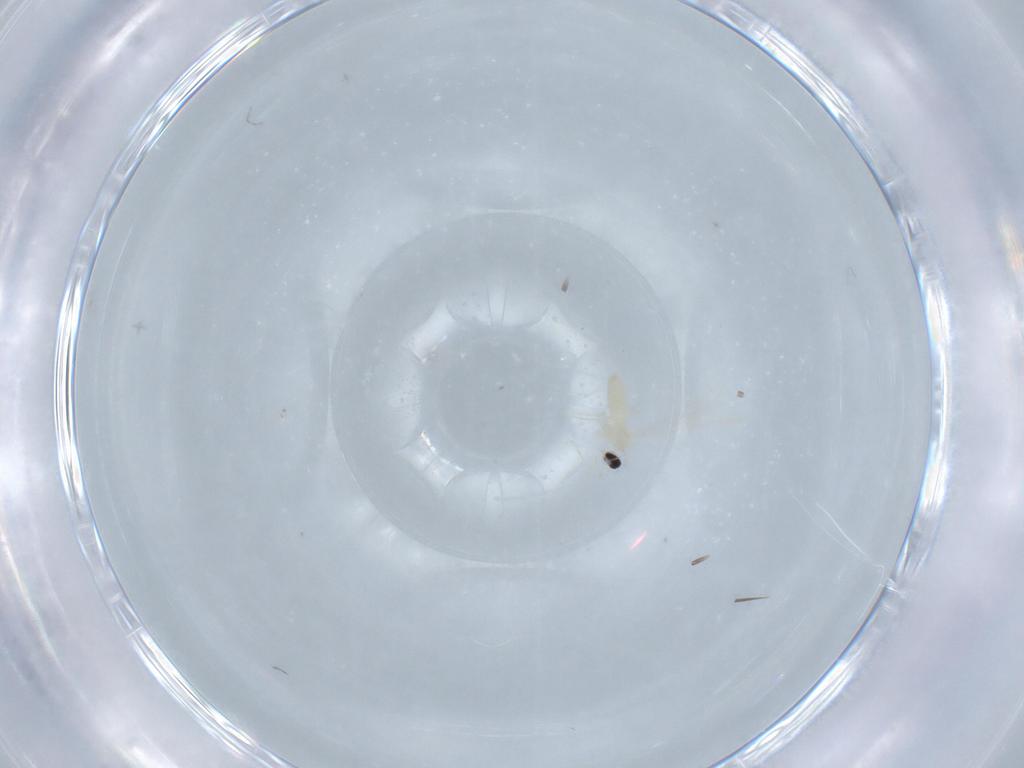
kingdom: Animalia
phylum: Arthropoda
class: Insecta
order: Diptera
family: Cecidomyiidae
